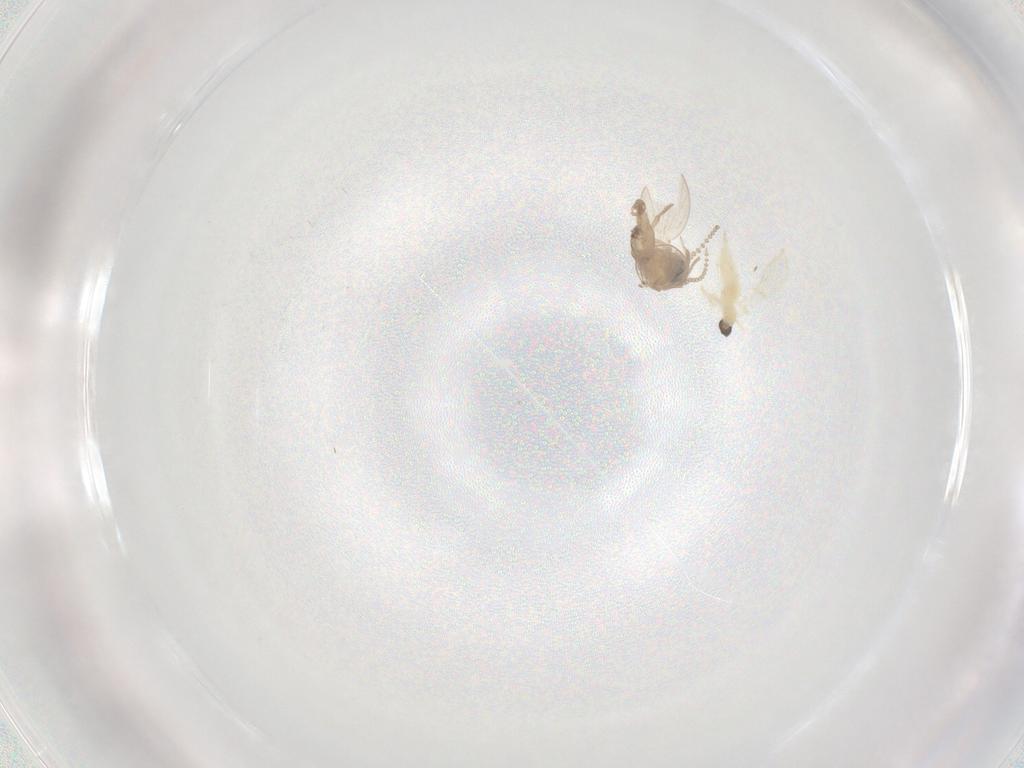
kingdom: Animalia
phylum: Arthropoda
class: Insecta
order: Diptera
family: Psychodidae
